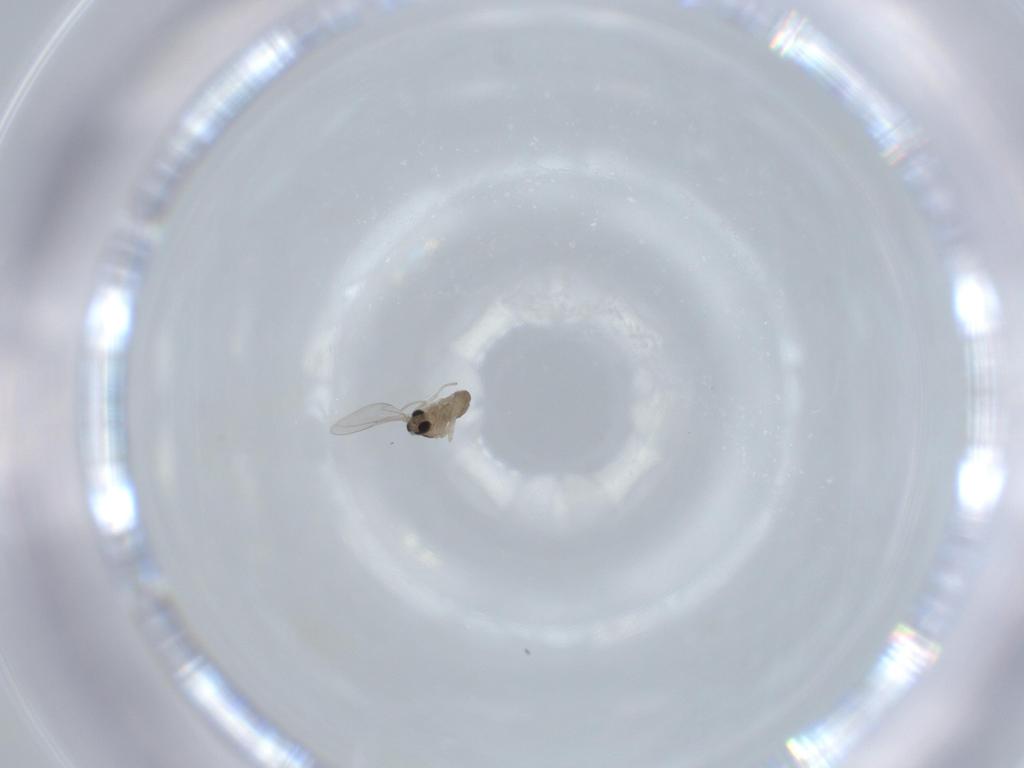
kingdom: Animalia
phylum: Arthropoda
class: Insecta
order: Diptera
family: Cecidomyiidae
